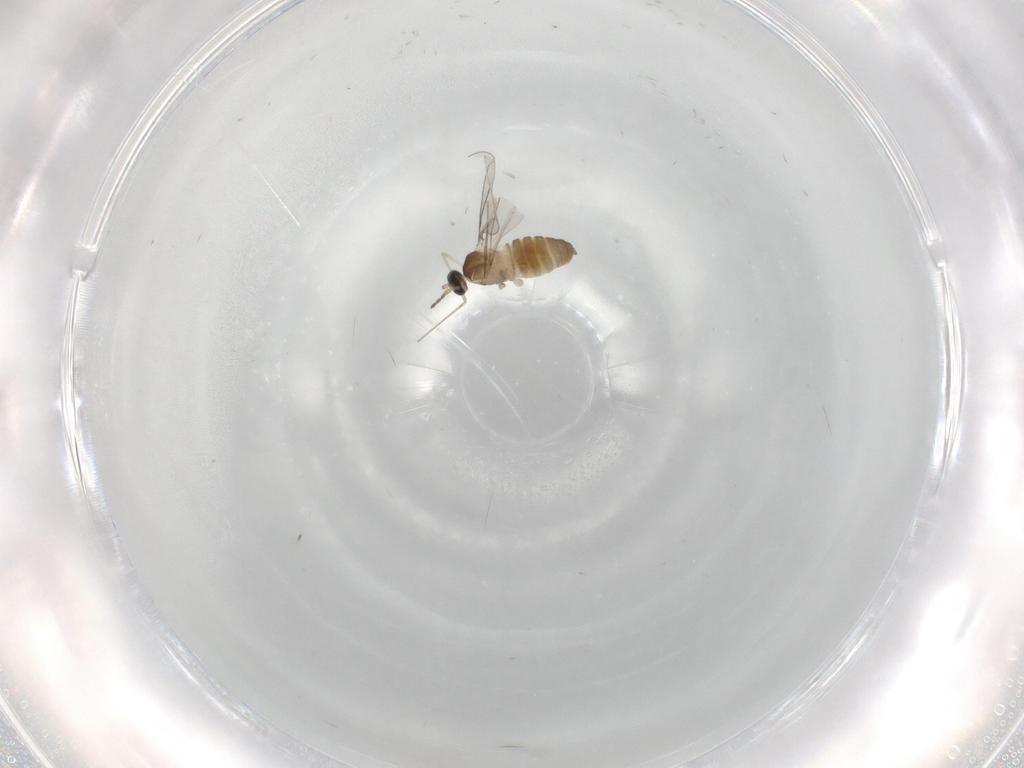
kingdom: Animalia
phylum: Arthropoda
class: Insecta
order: Diptera
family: Cecidomyiidae
